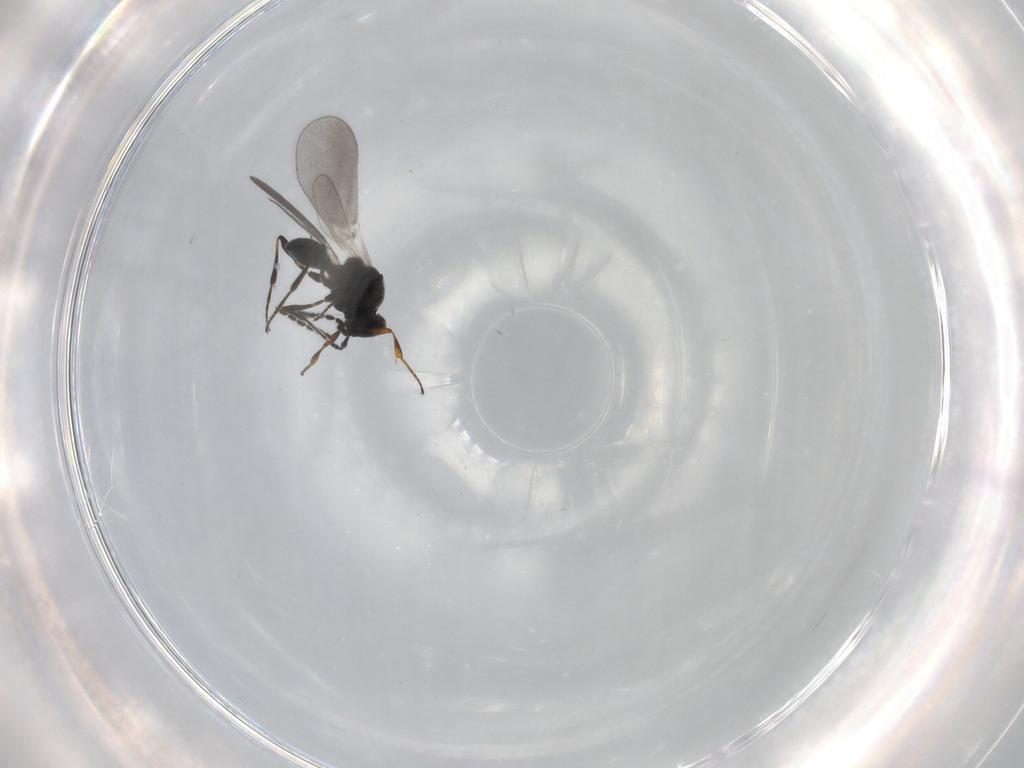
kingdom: Animalia
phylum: Arthropoda
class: Insecta
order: Hymenoptera
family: Platygastridae
